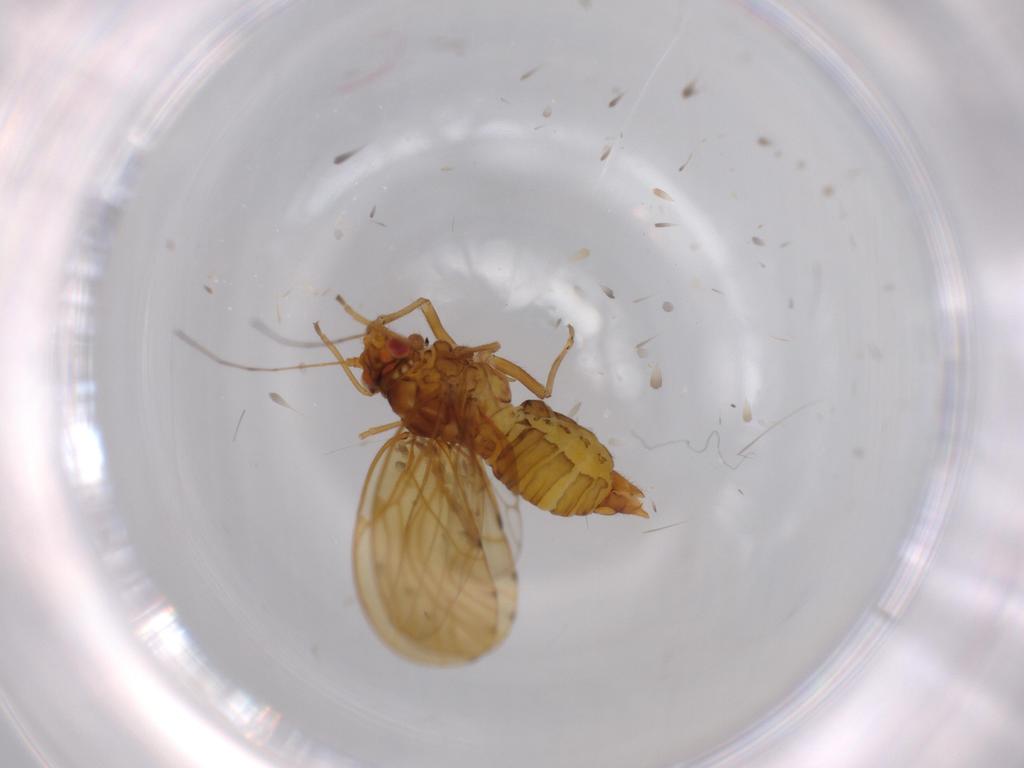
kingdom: Animalia
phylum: Arthropoda
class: Insecta
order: Hemiptera
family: Psylloidea_incertae_sedis
